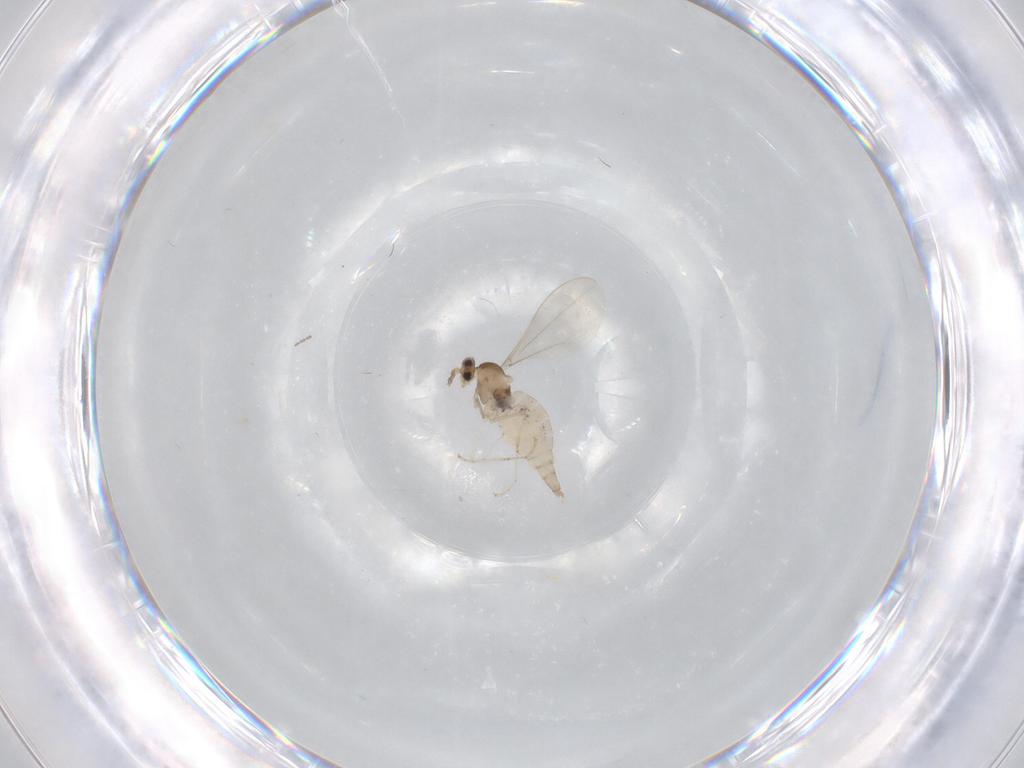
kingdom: Animalia
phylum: Arthropoda
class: Insecta
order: Diptera
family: Cecidomyiidae
